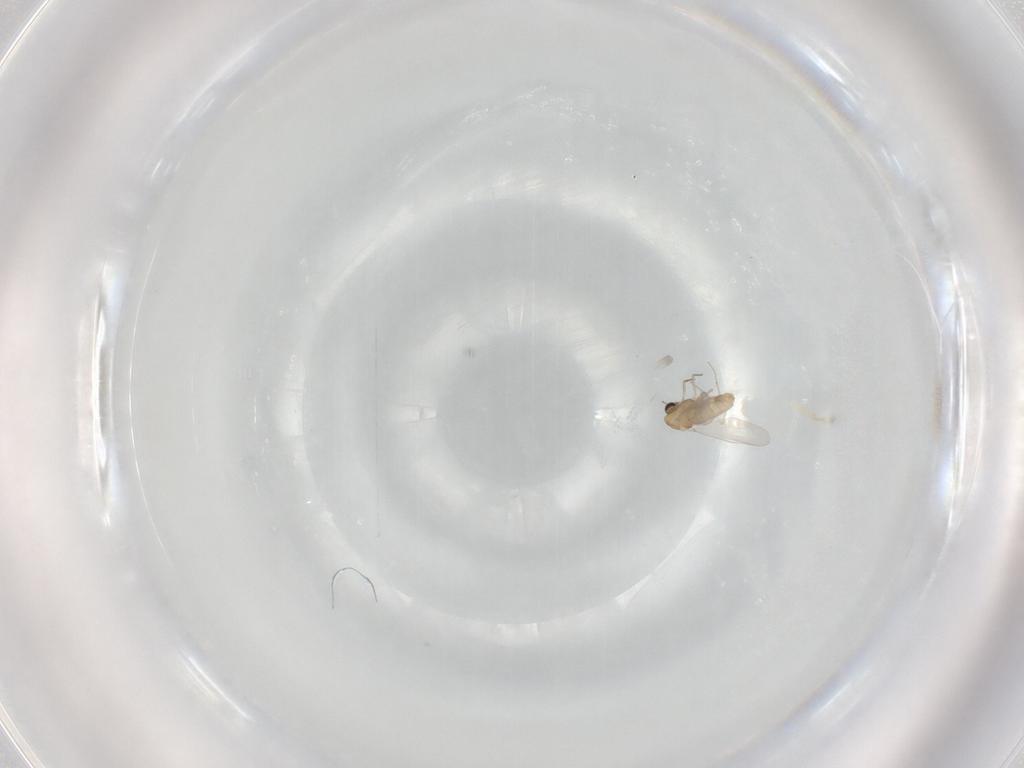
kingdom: Animalia
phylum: Arthropoda
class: Insecta
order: Diptera
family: Chironomidae
